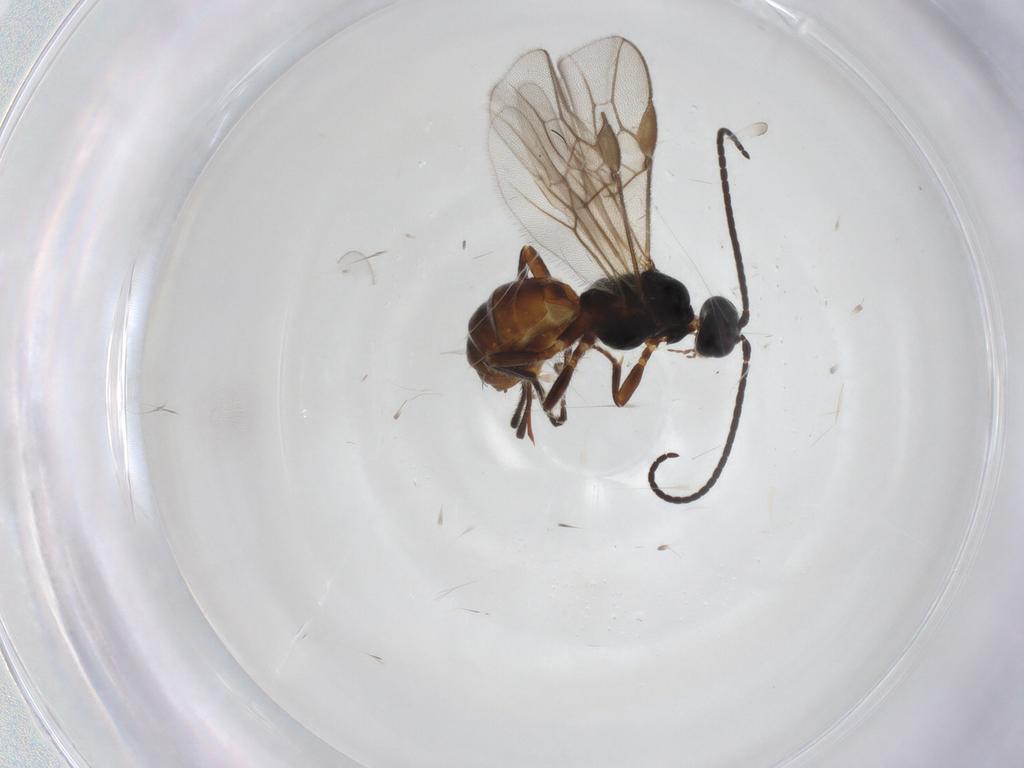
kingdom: Animalia
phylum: Arthropoda
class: Insecta
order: Hymenoptera
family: Braconidae
